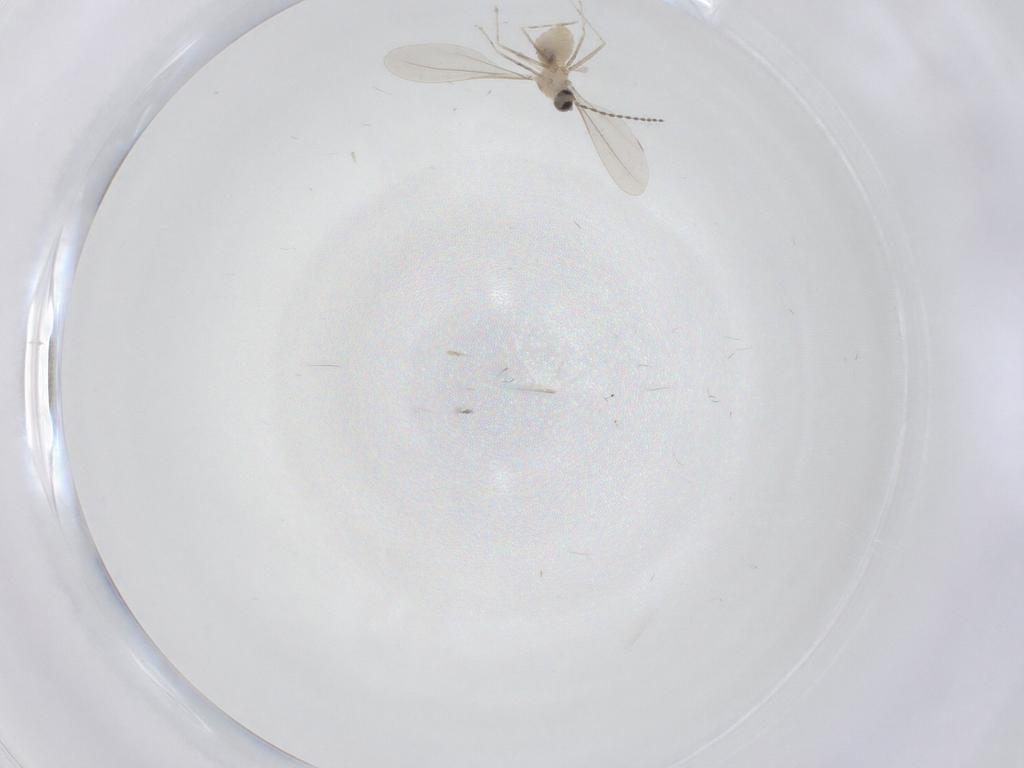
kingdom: Animalia
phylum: Arthropoda
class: Insecta
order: Diptera
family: Cecidomyiidae
